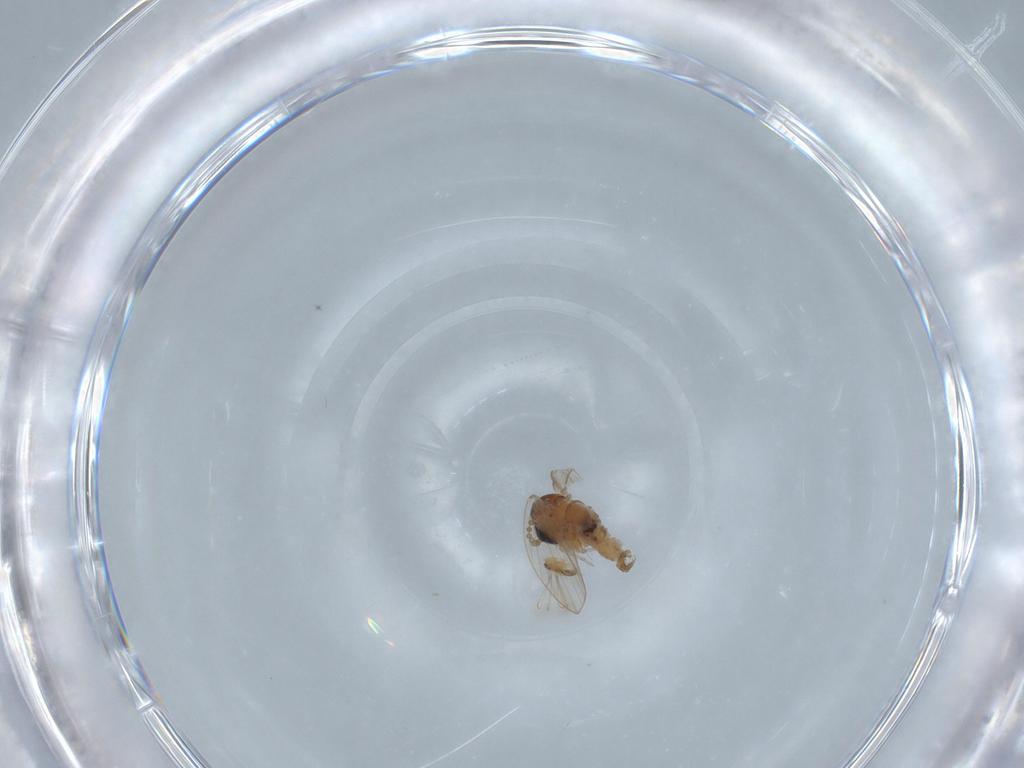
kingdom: Animalia
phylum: Arthropoda
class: Insecta
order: Diptera
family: Psychodidae
